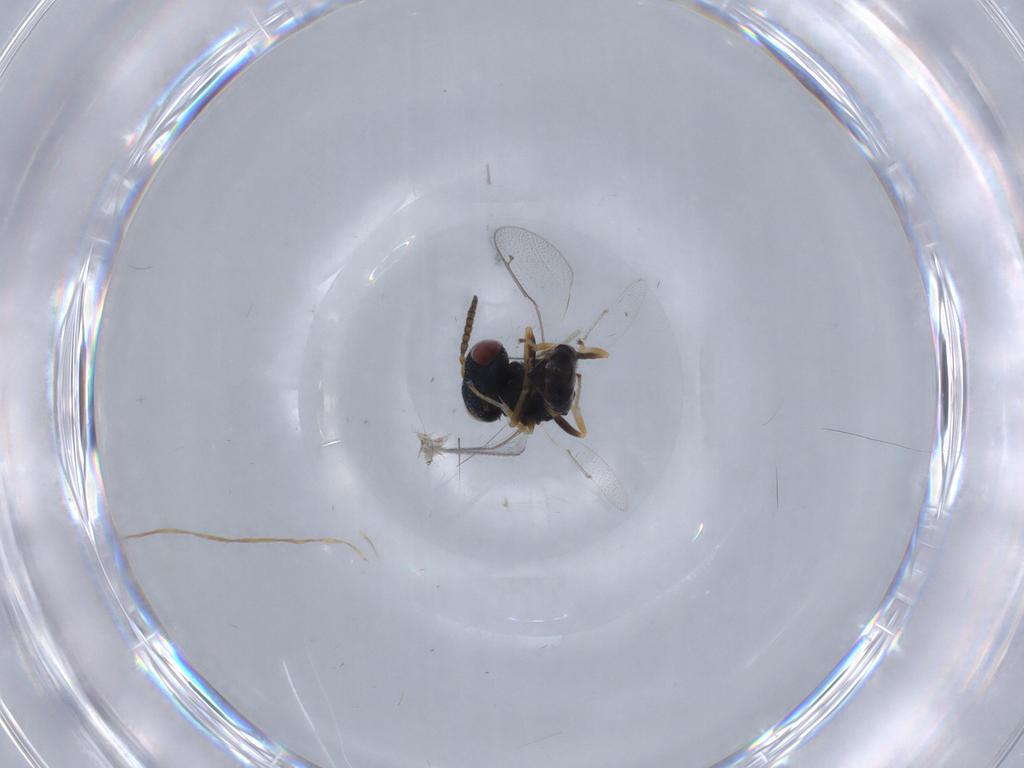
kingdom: Animalia
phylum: Arthropoda
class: Insecta
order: Hymenoptera
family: Pteromalidae
